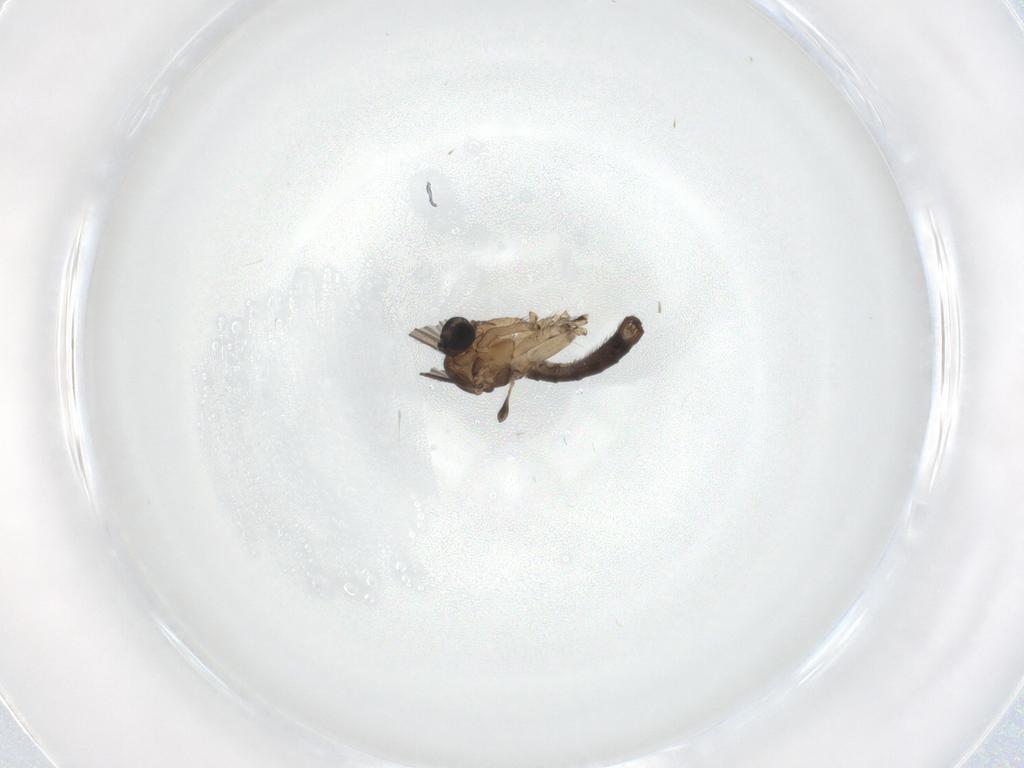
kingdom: Animalia
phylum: Arthropoda
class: Insecta
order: Diptera
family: Sciaridae
